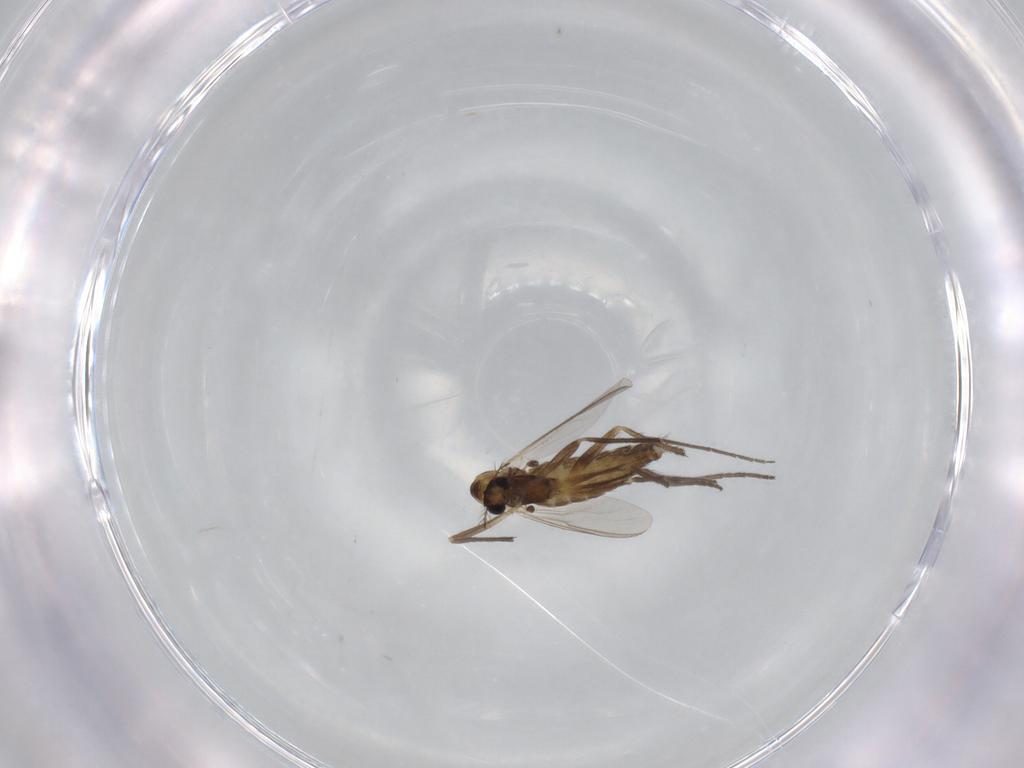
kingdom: Animalia
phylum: Arthropoda
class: Insecta
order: Diptera
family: Chironomidae
